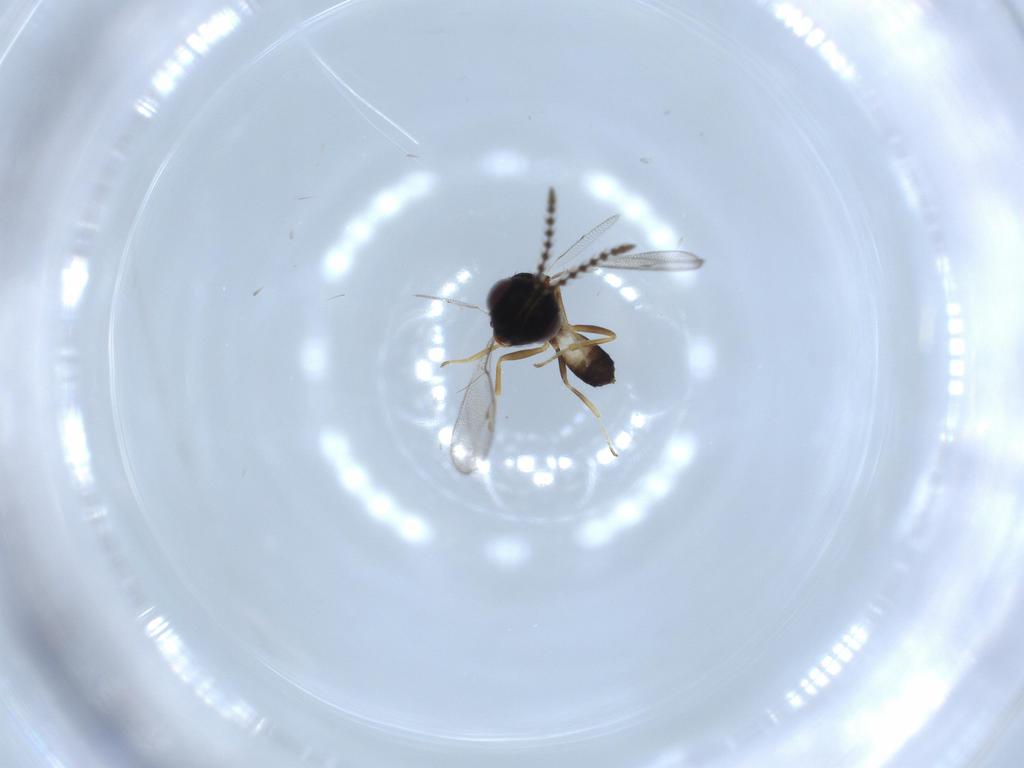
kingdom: Animalia
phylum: Arthropoda
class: Insecta
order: Hymenoptera
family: Pteromalidae
